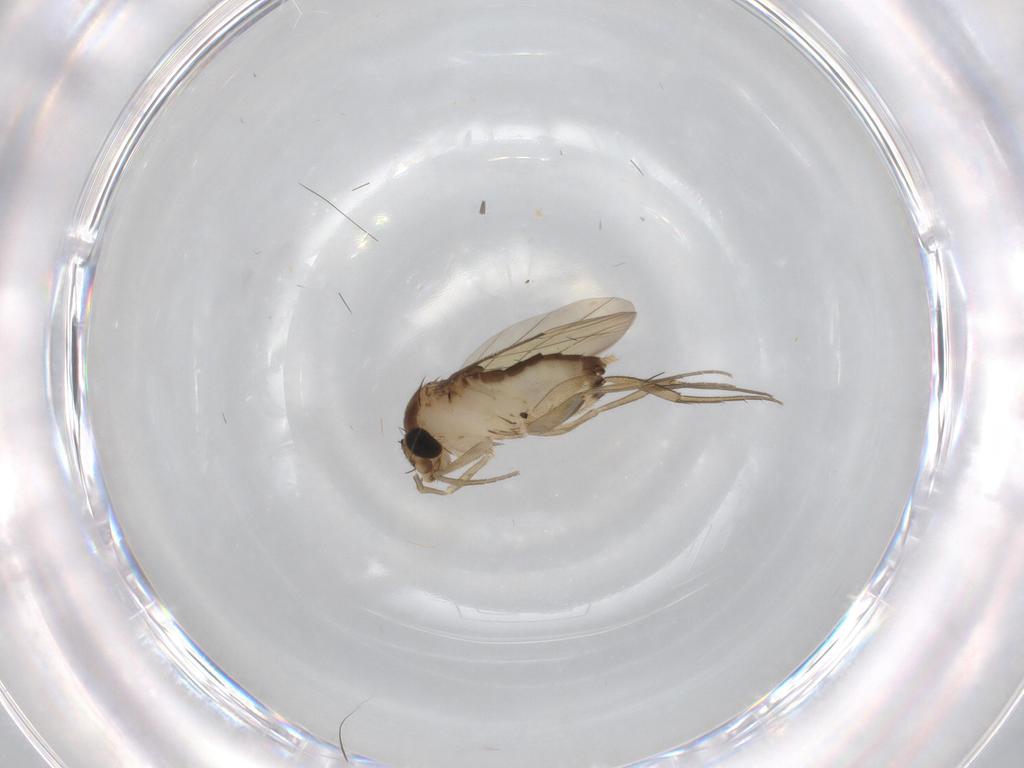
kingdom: Animalia
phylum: Arthropoda
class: Insecta
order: Diptera
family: Phoridae
